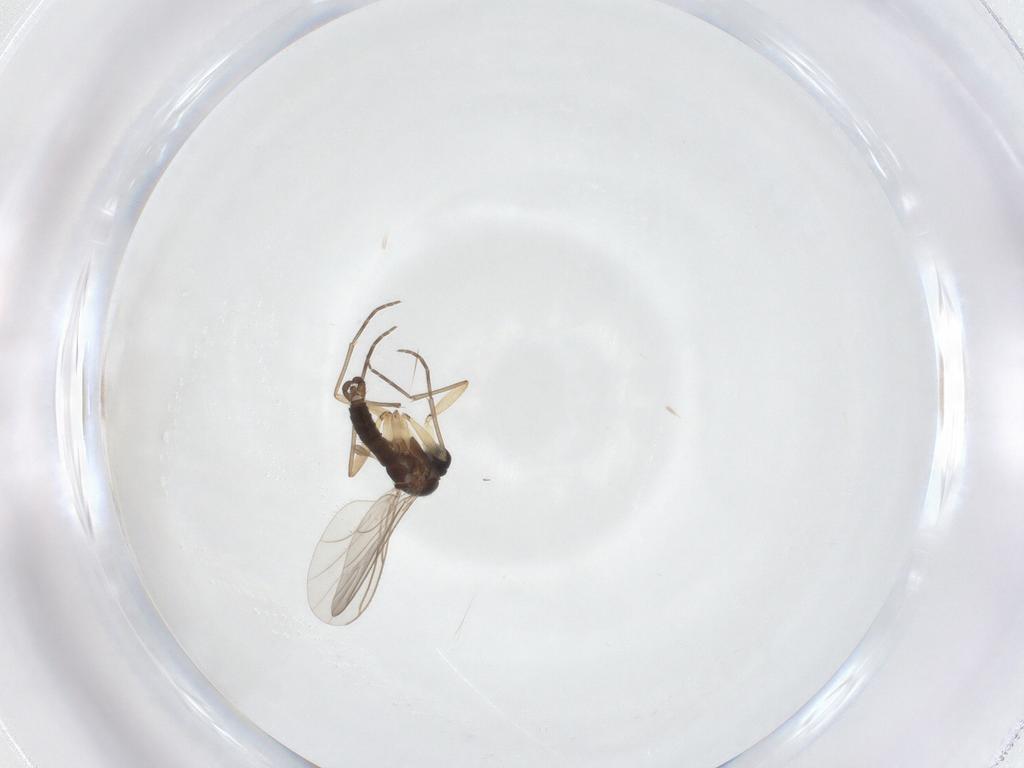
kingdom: Animalia
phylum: Arthropoda
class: Insecta
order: Diptera
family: Sciaridae
